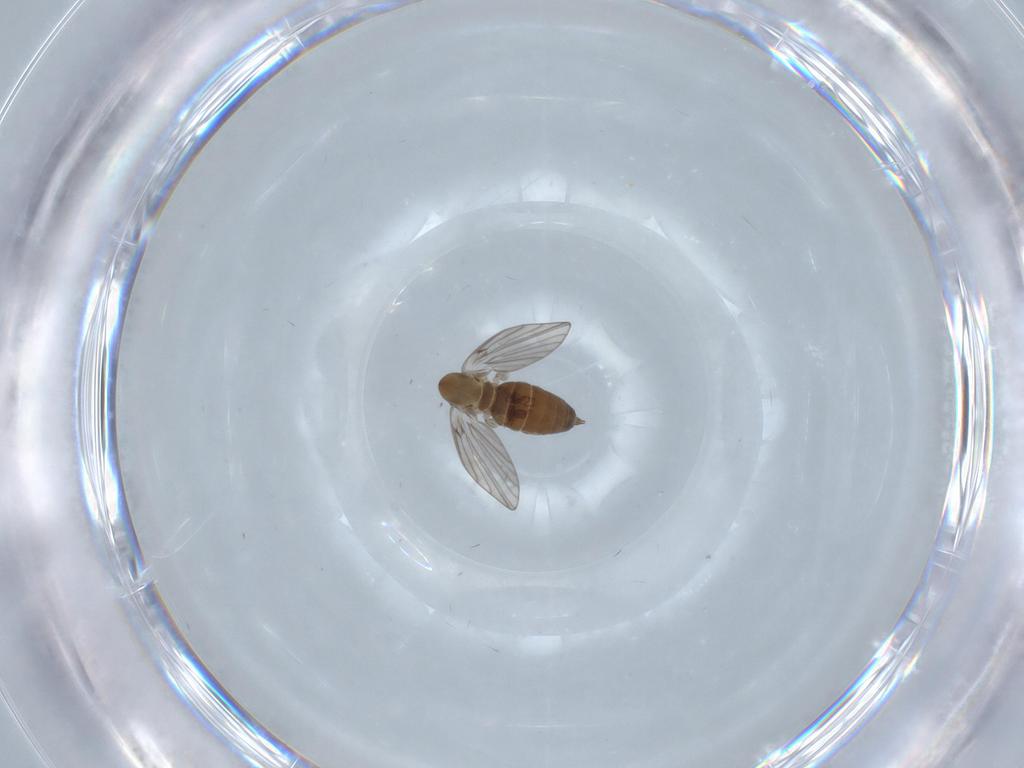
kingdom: Animalia
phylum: Arthropoda
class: Insecta
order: Diptera
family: Psychodidae
